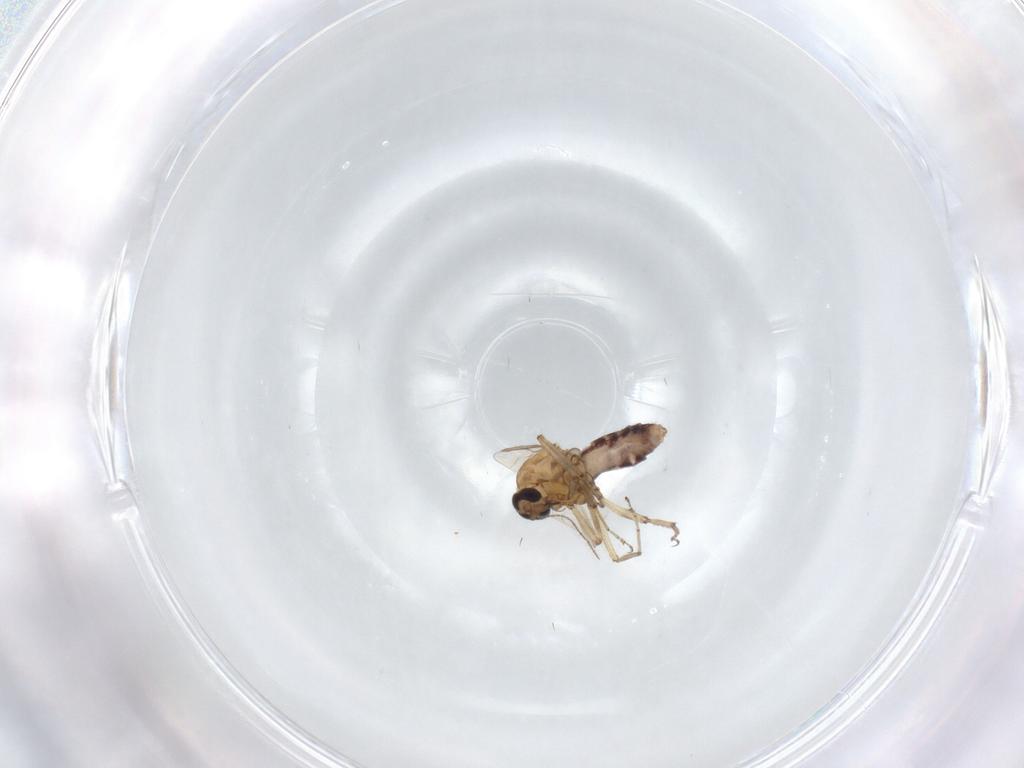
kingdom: Animalia
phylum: Arthropoda
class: Insecta
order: Diptera
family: Ceratopogonidae
